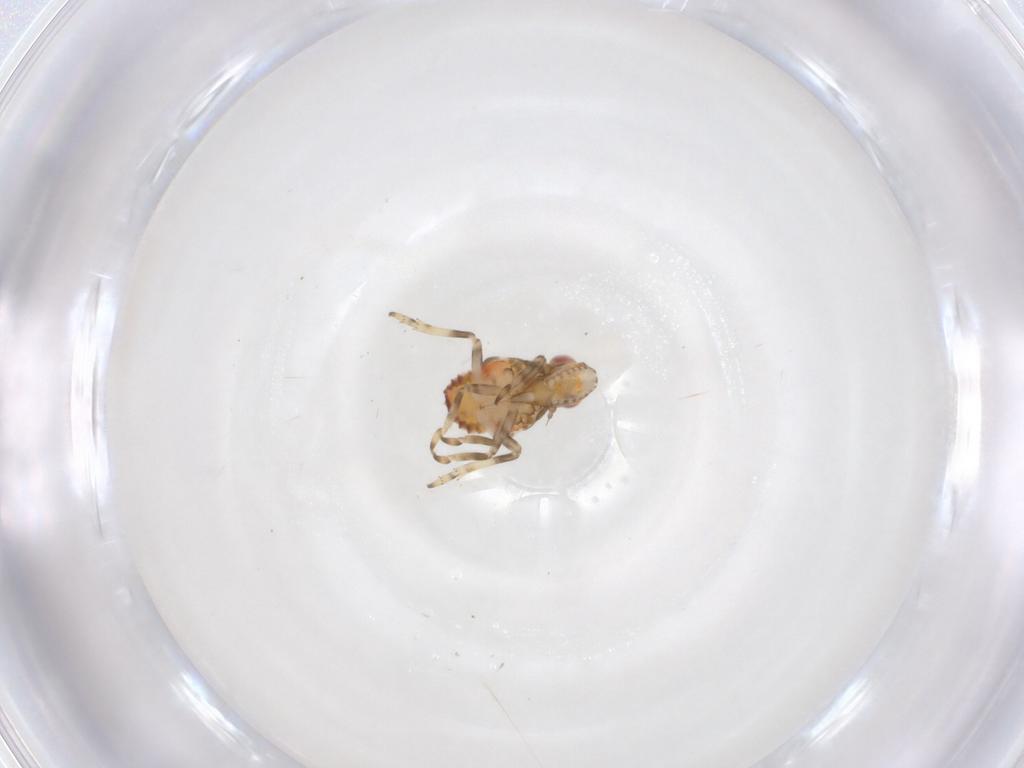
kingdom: Animalia
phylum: Arthropoda
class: Insecta
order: Hemiptera
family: Tropiduchidae
